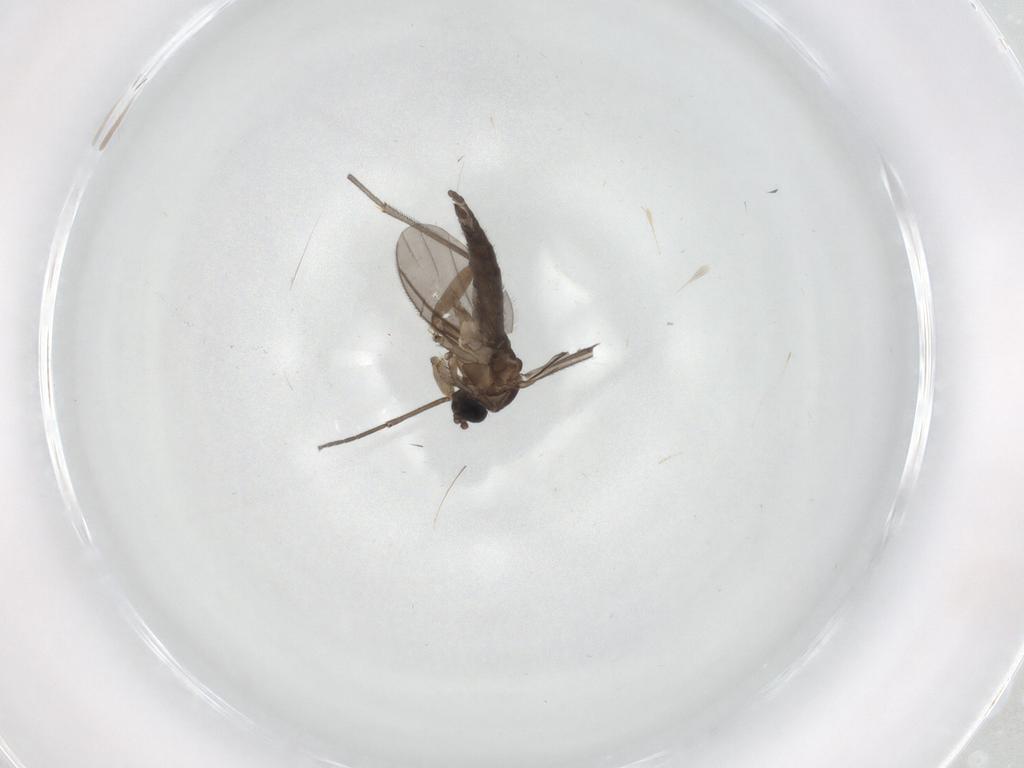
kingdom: Animalia
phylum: Arthropoda
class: Insecta
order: Diptera
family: Sciaridae
